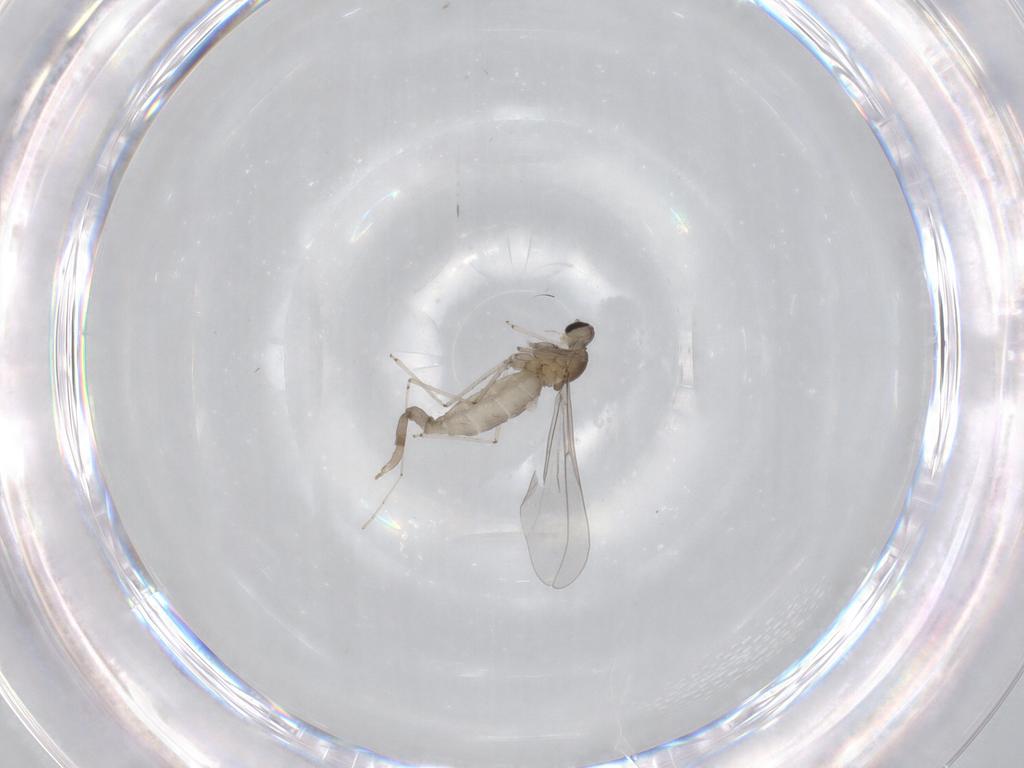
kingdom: Animalia
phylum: Arthropoda
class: Insecta
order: Diptera
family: Cecidomyiidae
